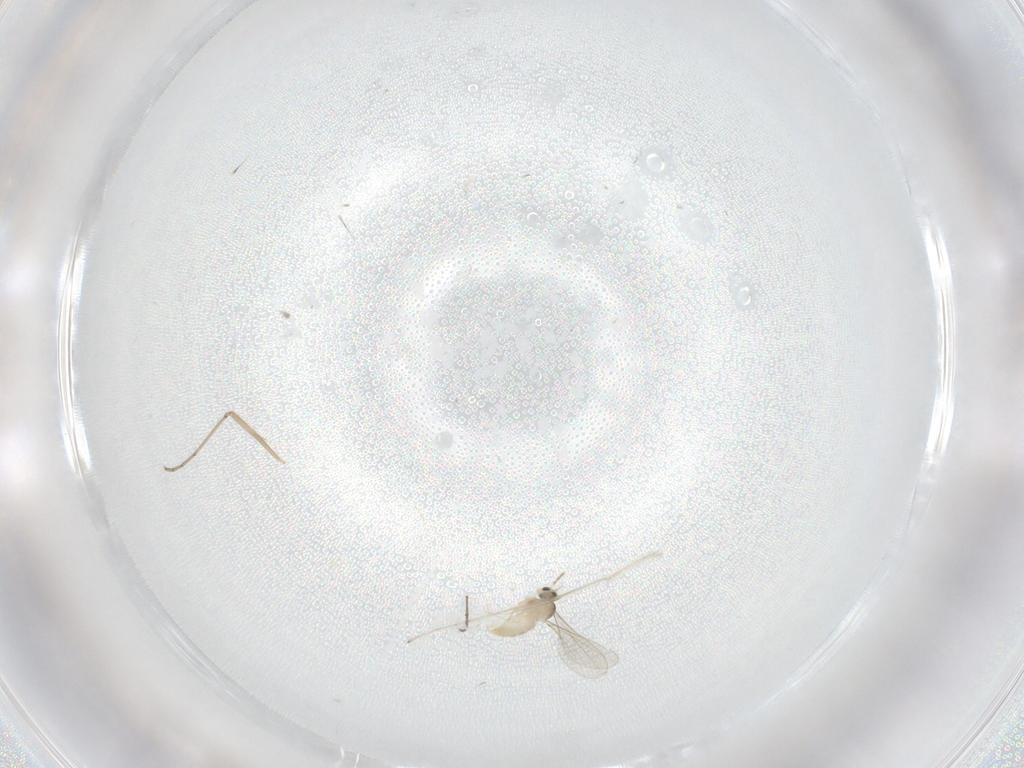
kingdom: Animalia
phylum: Arthropoda
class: Insecta
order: Diptera
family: Cecidomyiidae
